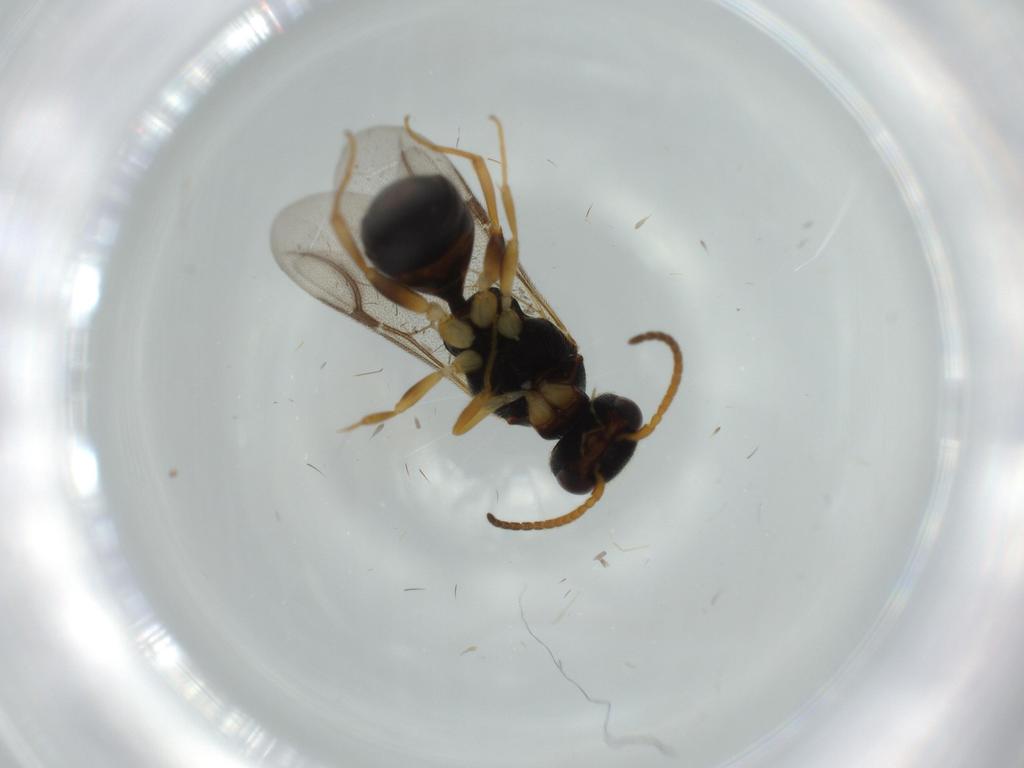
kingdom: Animalia
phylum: Arthropoda
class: Insecta
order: Hymenoptera
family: Bethylidae
